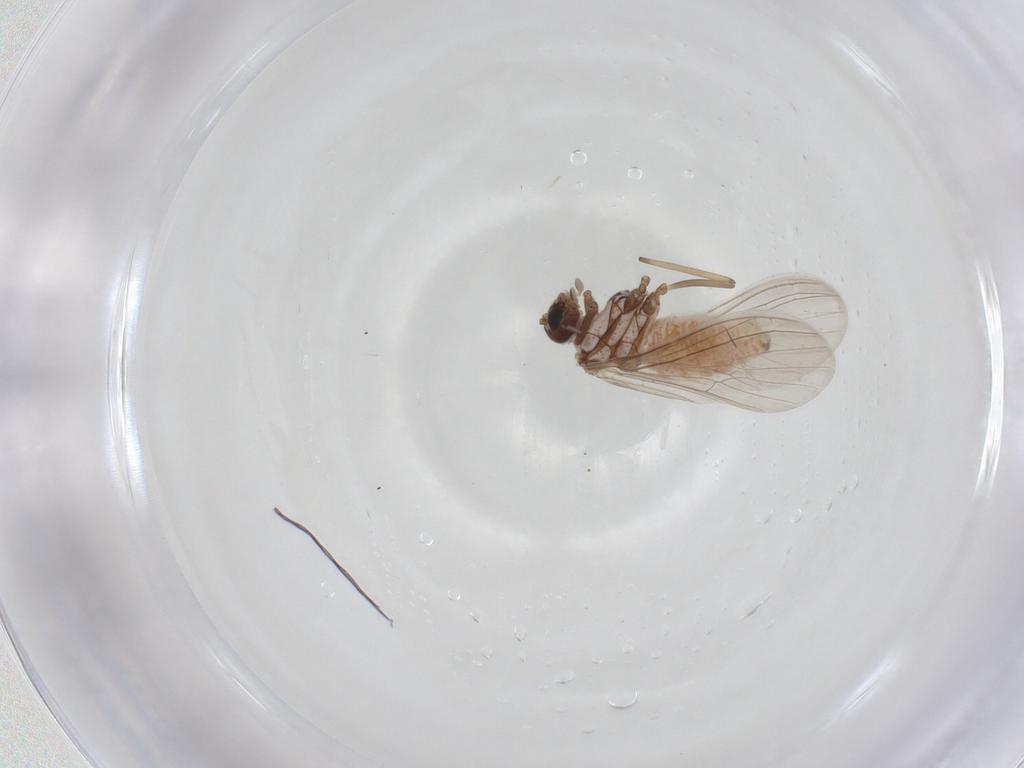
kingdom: Animalia
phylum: Arthropoda
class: Insecta
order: Neuroptera
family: Coniopterygidae
